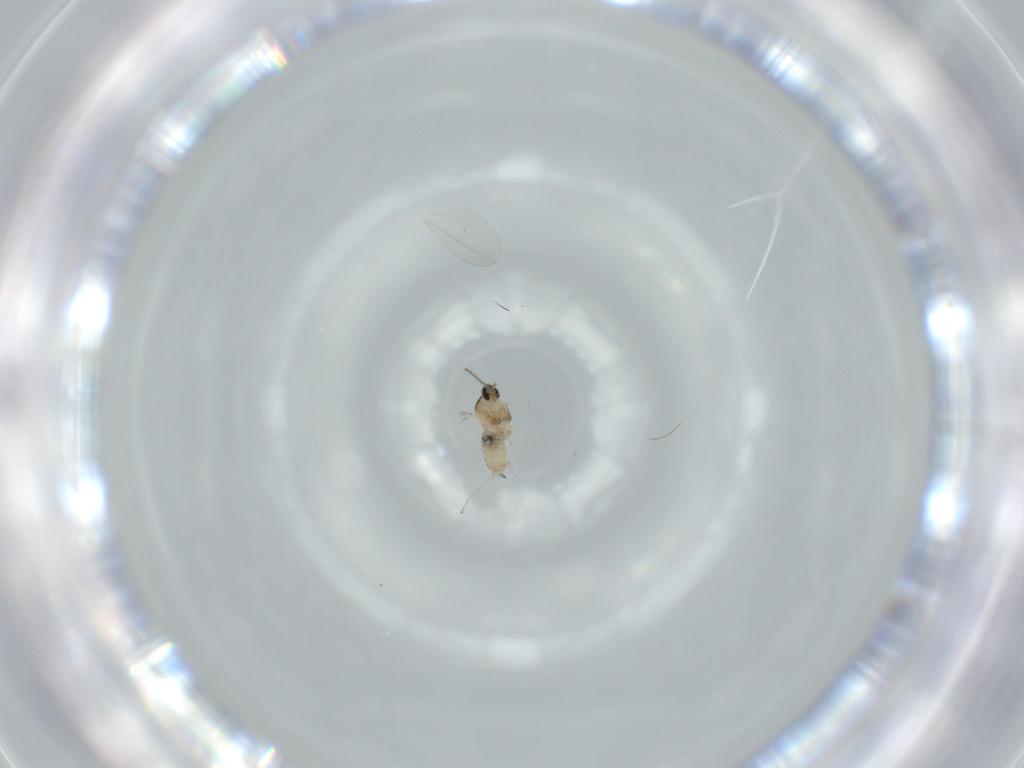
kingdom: Animalia
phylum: Arthropoda
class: Insecta
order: Diptera
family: Cecidomyiidae
